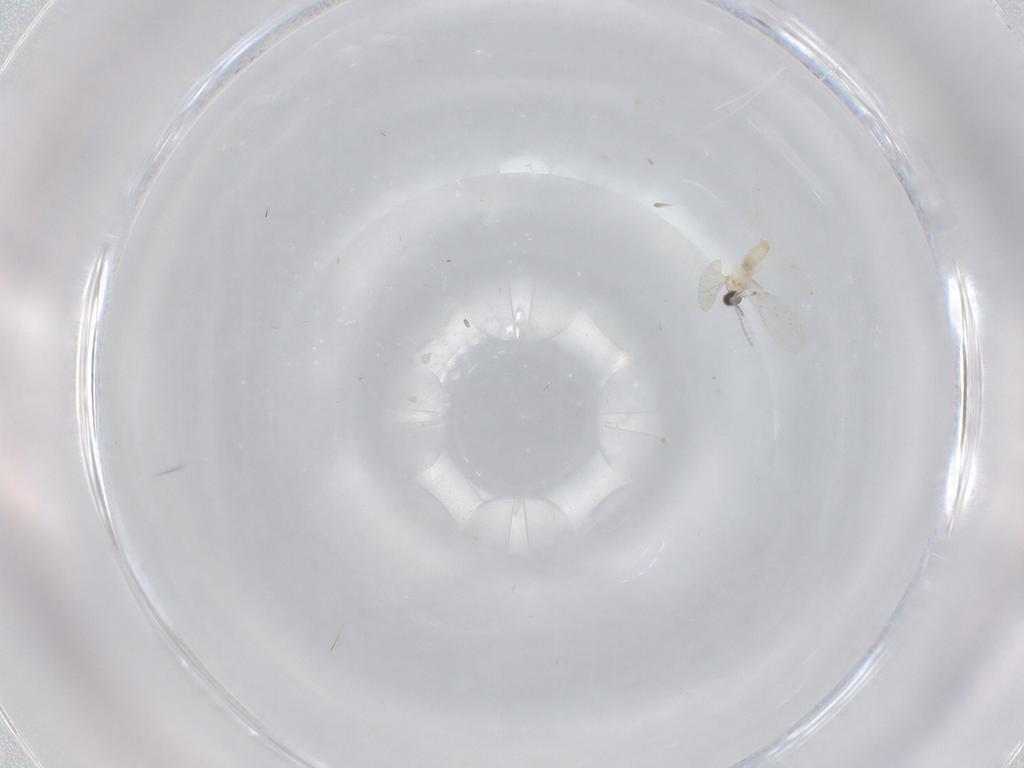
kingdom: Animalia
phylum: Arthropoda
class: Insecta
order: Diptera
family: Cecidomyiidae
